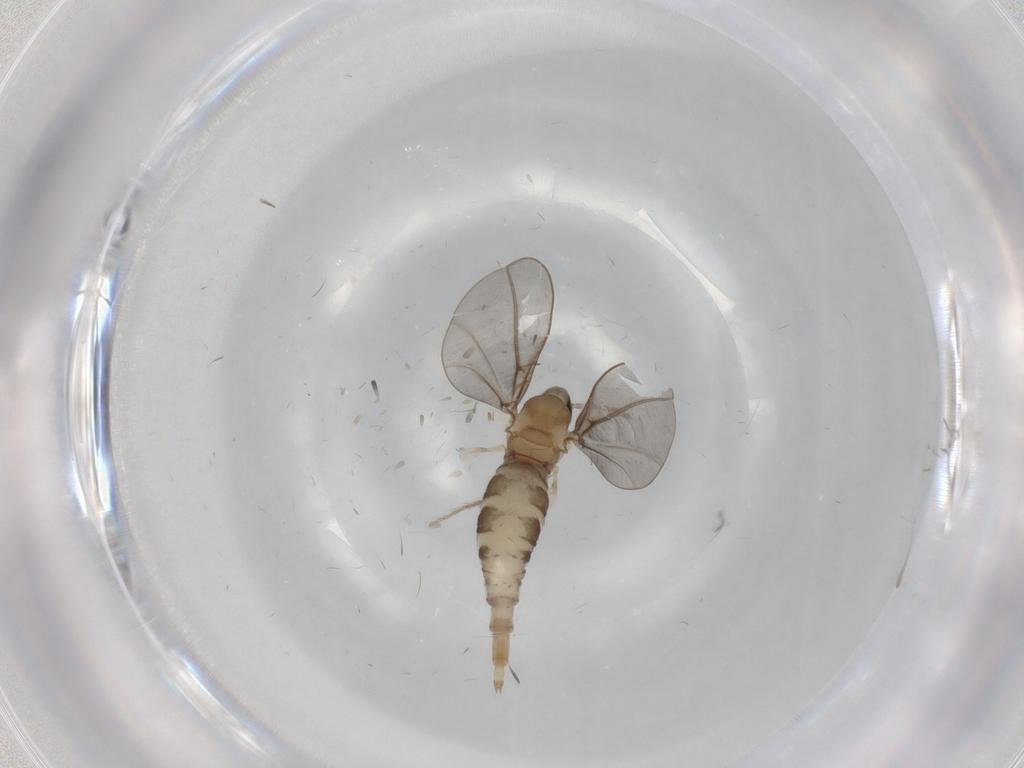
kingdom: Animalia
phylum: Arthropoda
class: Insecta
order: Diptera
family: Cecidomyiidae
